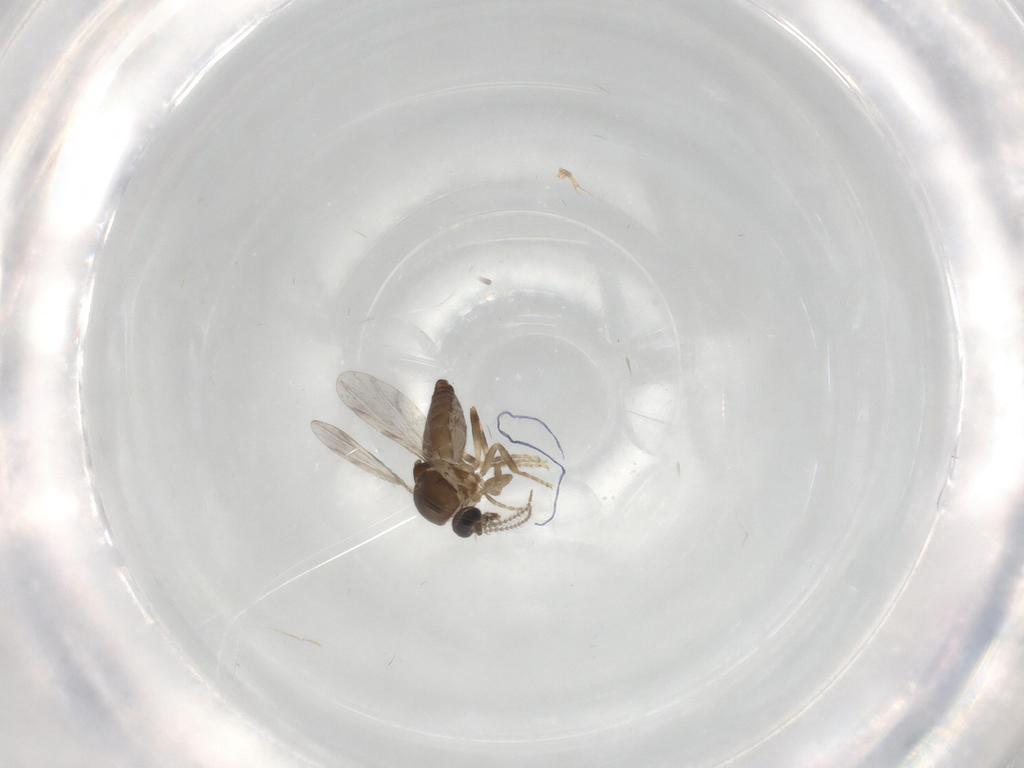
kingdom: Animalia
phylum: Arthropoda
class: Insecta
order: Diptera
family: Ceratopogonidae
